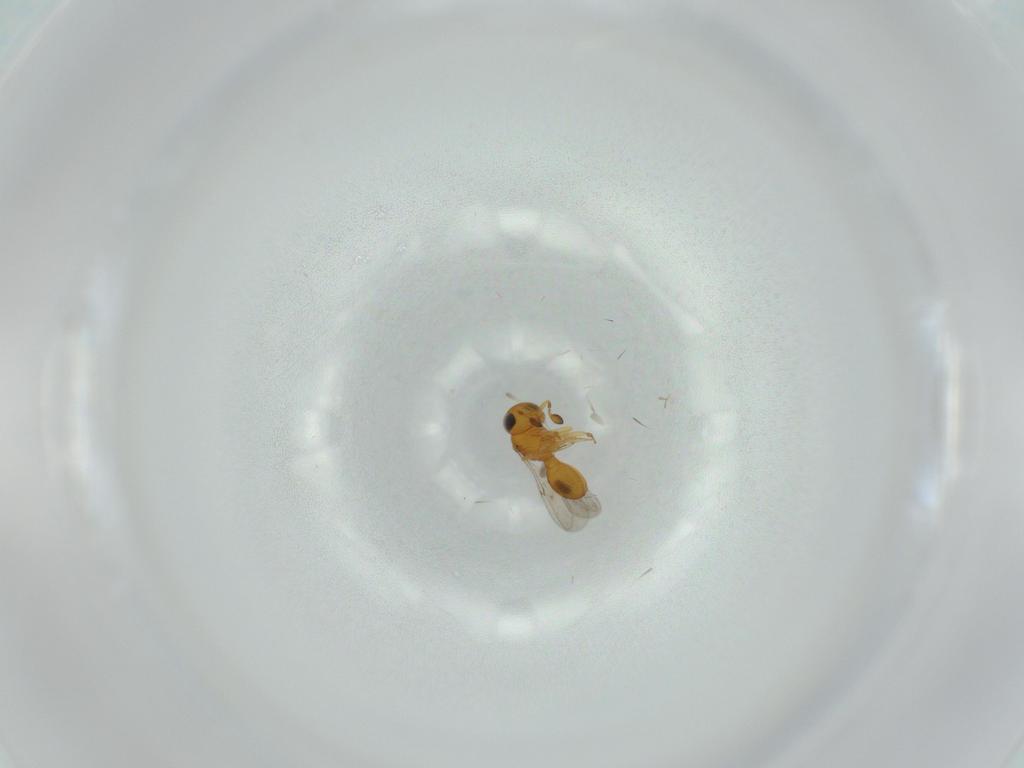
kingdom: Animalia
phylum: Arthropoda
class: Insecta
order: Hymenoptera
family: Scelionidae
